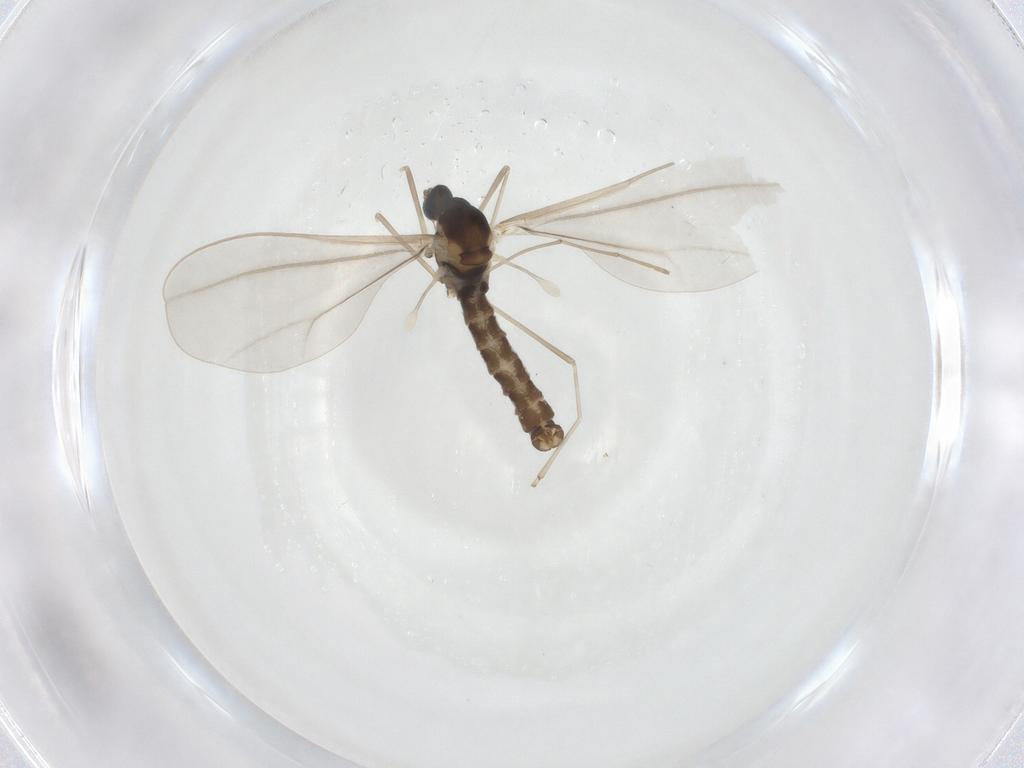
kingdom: Animalia
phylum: Arthropoda
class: Insecta
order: Diptera
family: Cecidomyiidae
